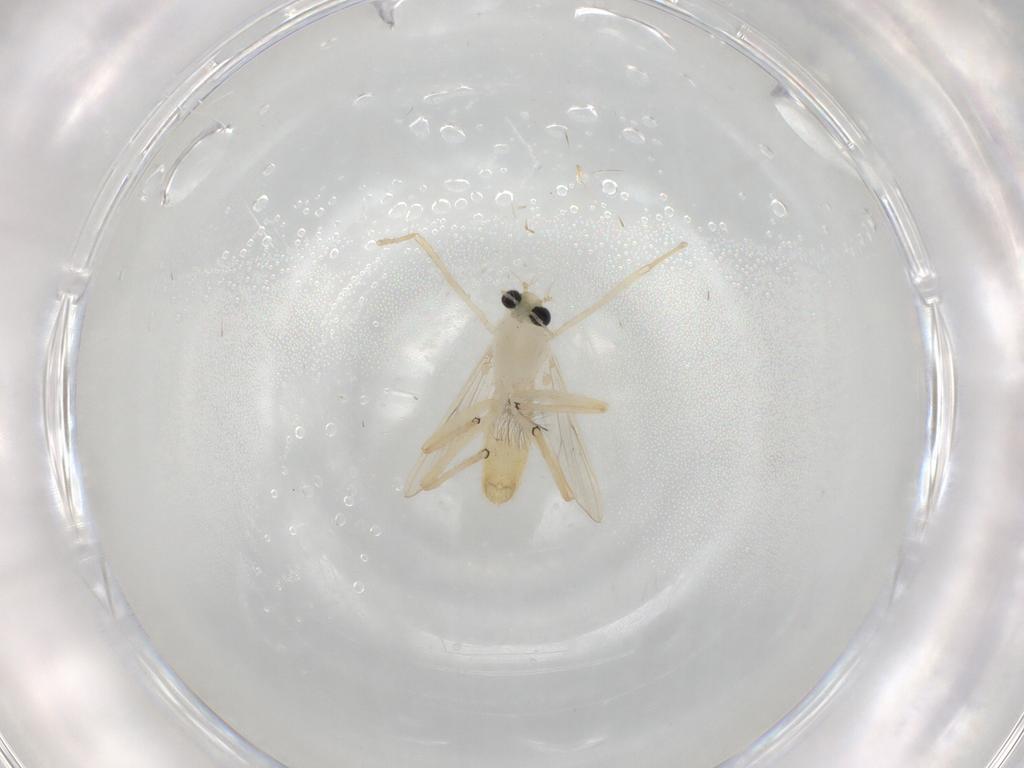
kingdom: Animalia
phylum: Arthropoda
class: Insecta
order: Diptera
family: Chironomidae
